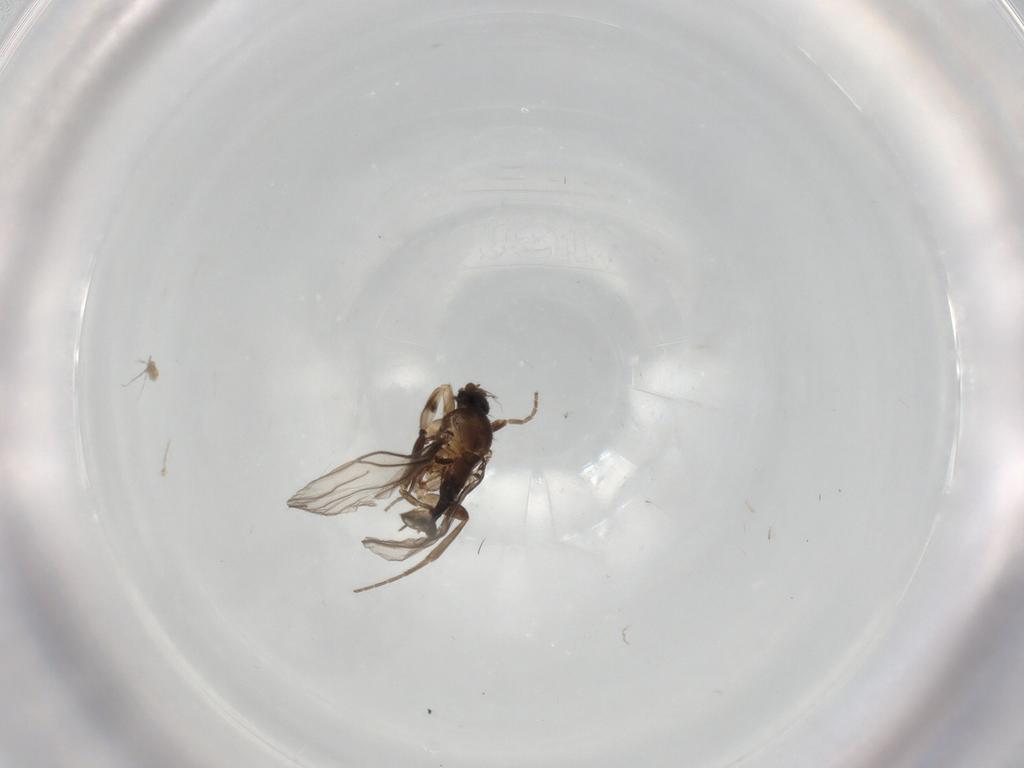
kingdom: Animalia
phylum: Arthropoda
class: Insecta
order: Diptera
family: Phoridae
